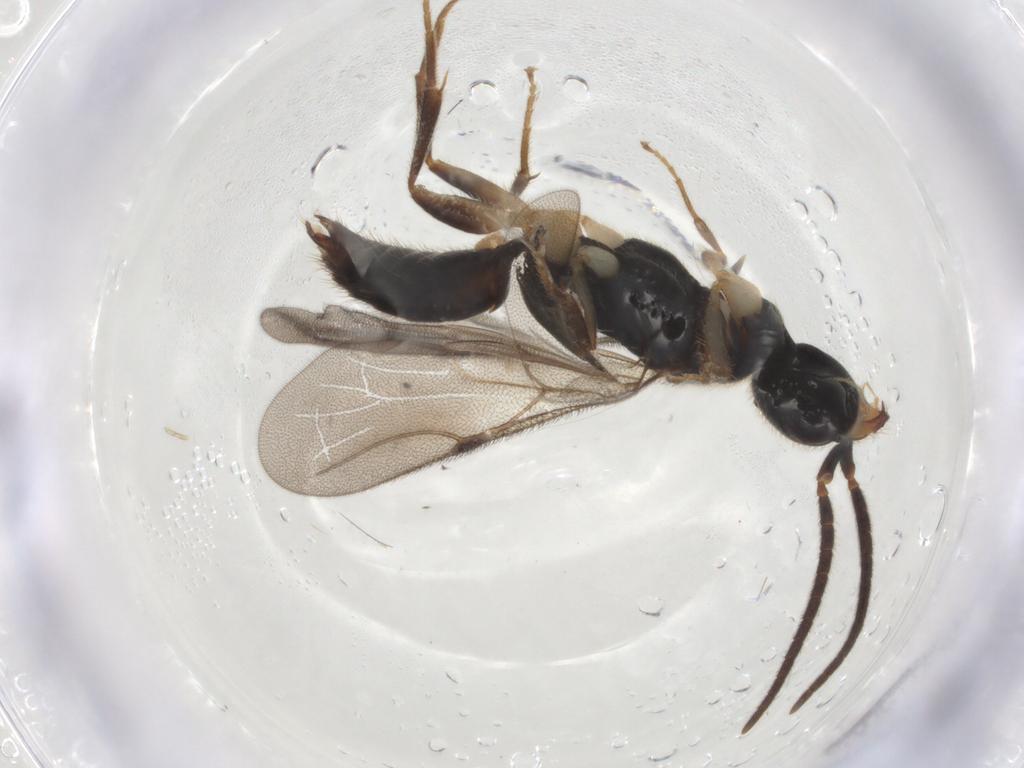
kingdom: Animalia
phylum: Arthropoda
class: Insecta
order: Hymenoptera
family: Bethylidae
